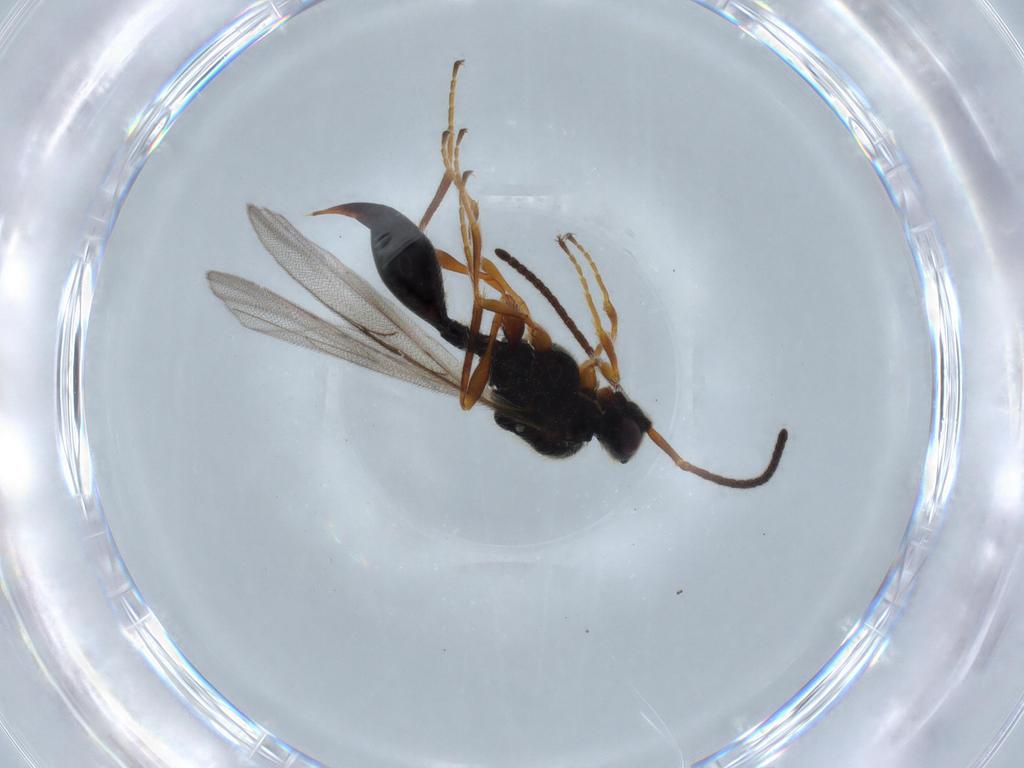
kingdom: Animalia
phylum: Arthropoda
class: Insecta
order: Hymenoptera
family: Diapriidae
